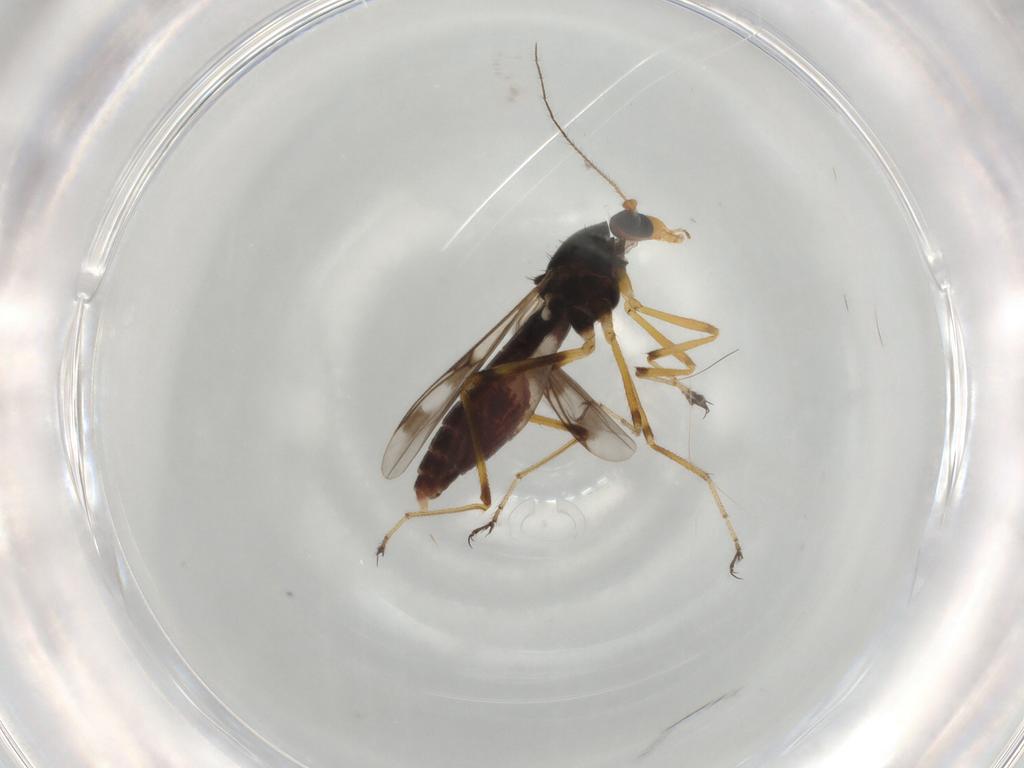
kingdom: Animalia
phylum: Arthropoda
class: Insecta
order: Diptera
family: Ceratopogonidae
